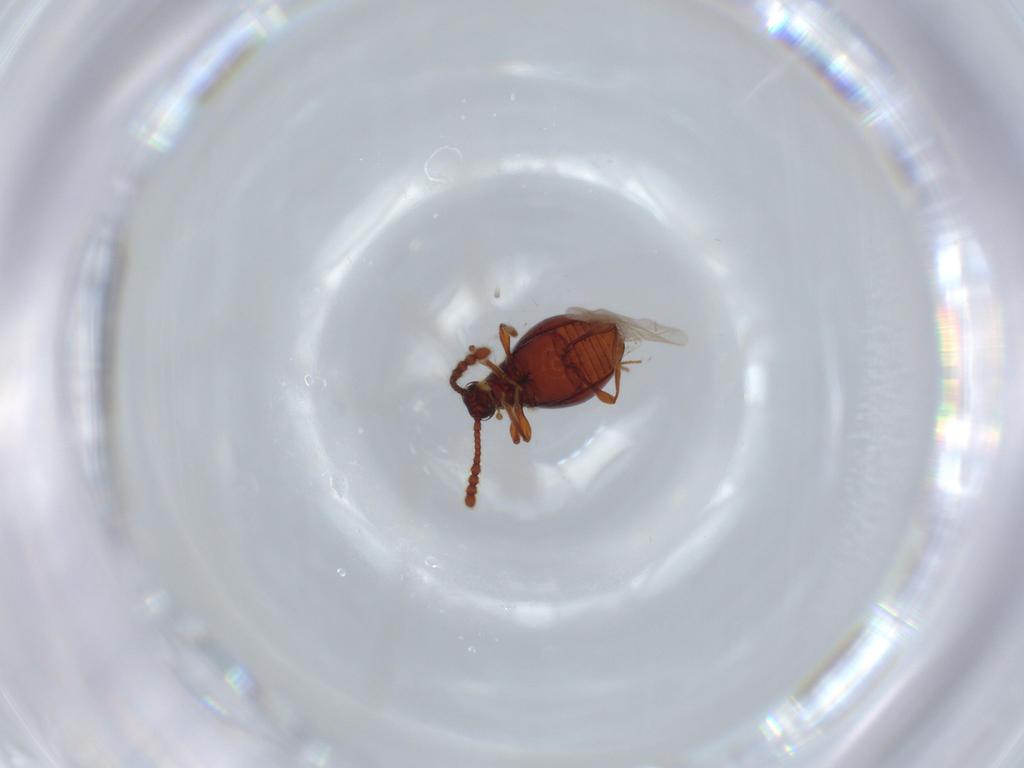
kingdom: Animalia
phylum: Arthropoda
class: Insecta
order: Coleoptera
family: Staphylinidae
